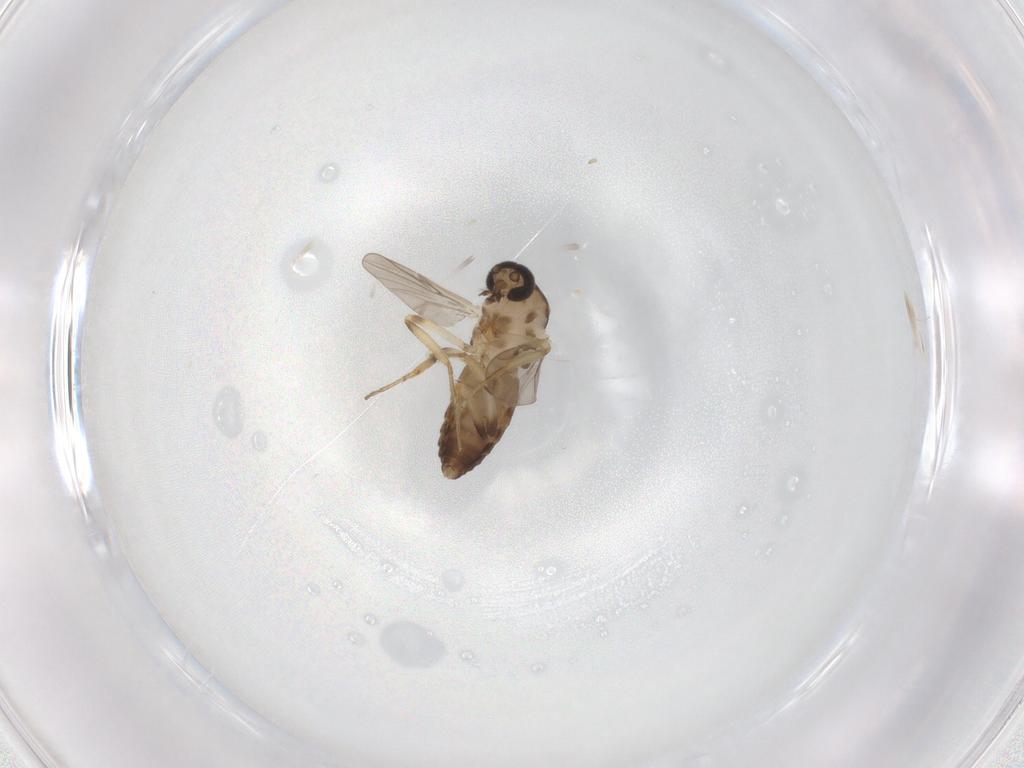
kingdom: Animalia
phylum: Arthropoda
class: Insecta
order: Diptera
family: Ceratopogonidae
